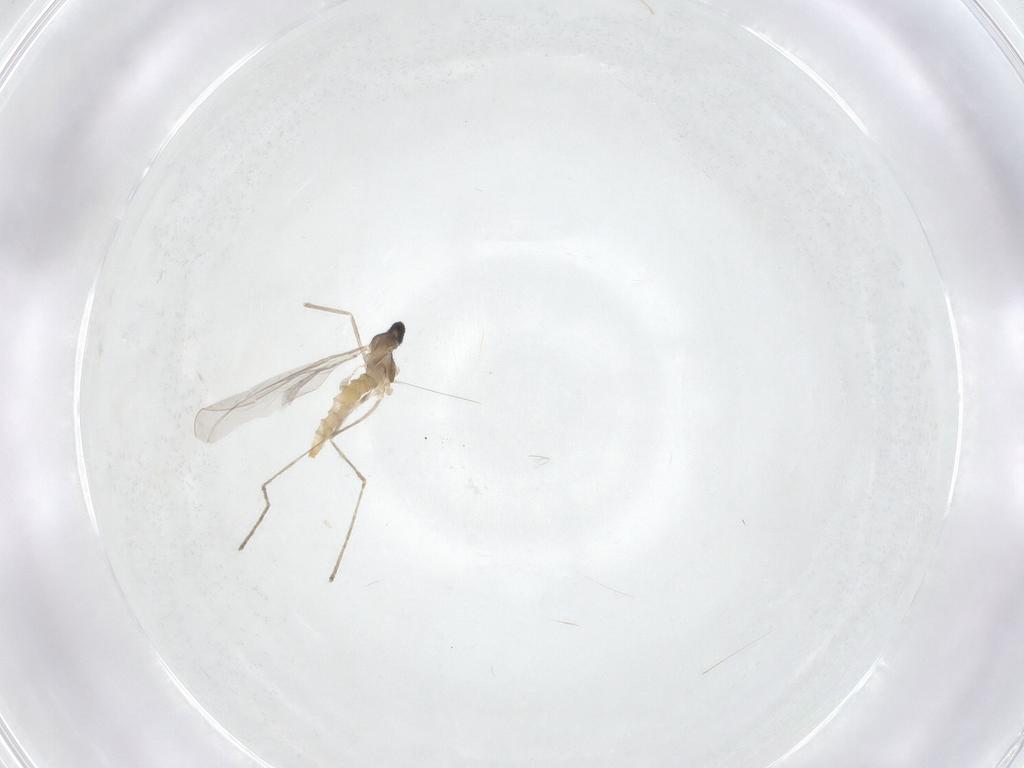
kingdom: Animalia
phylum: Arthropoda
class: Insecta
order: Diptera
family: Cecidomyiidae
